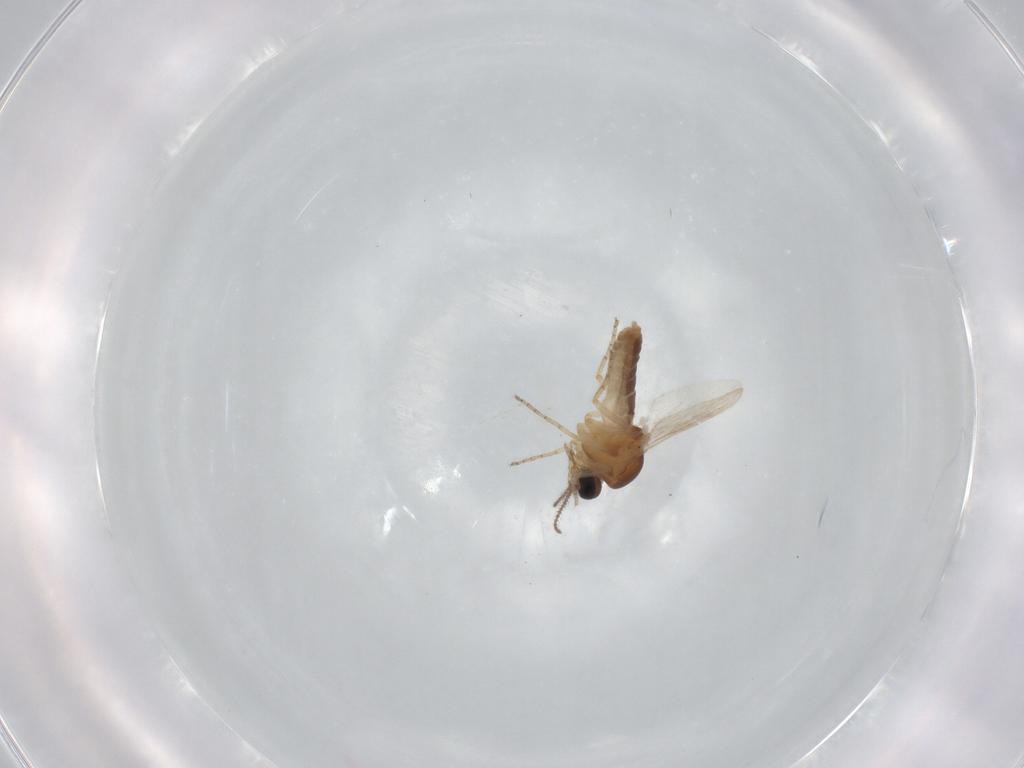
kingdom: Animalia
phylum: Arthropoda
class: Insecta
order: Diptera
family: Ceratopogonidae
